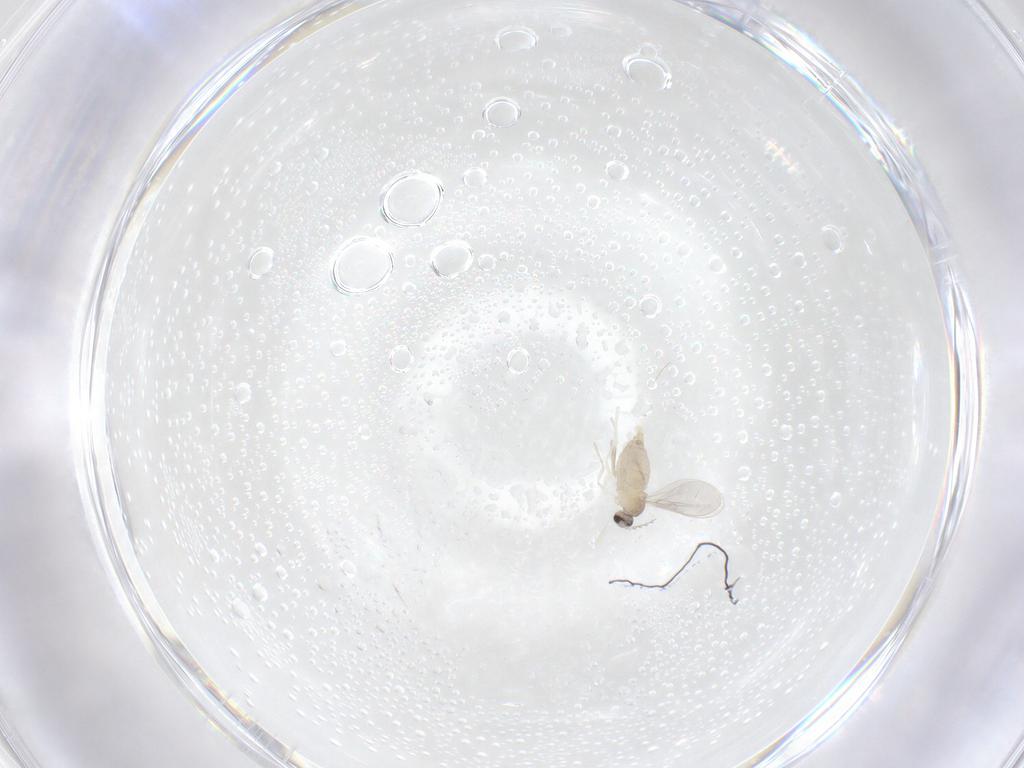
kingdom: Animalia
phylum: Arthropoda
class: Insecta
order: Diptera
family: Cecidomyiidae
